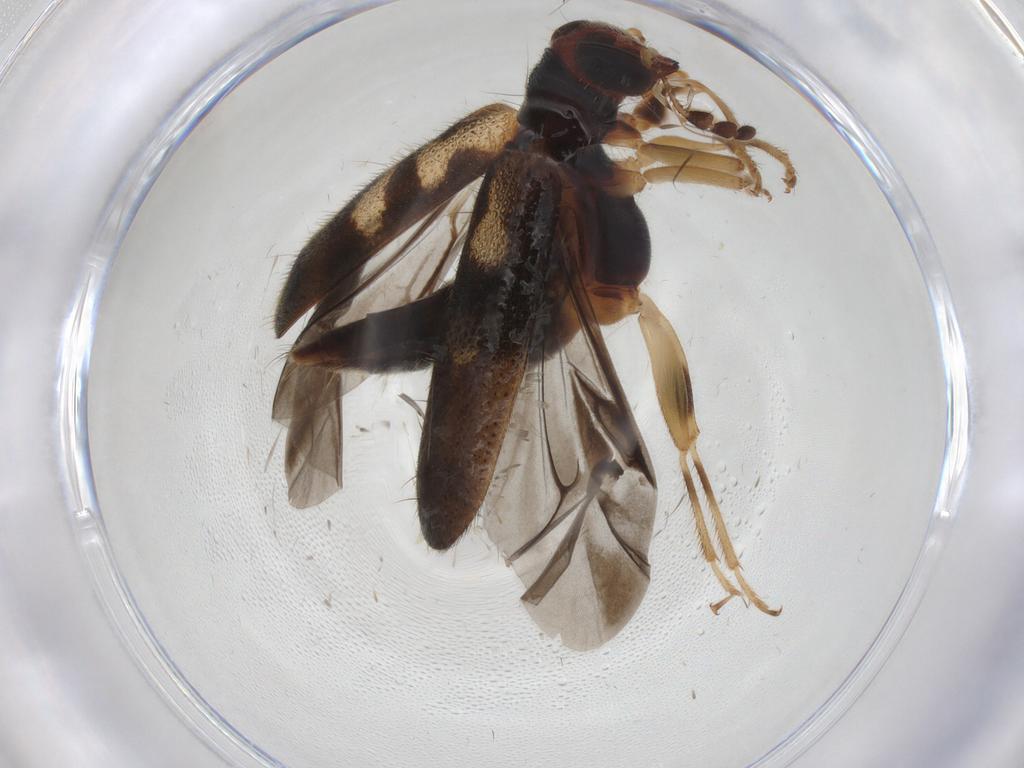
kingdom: Animalia
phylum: Arthropoda
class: Insecta
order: Coleoptera
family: Cleridae
